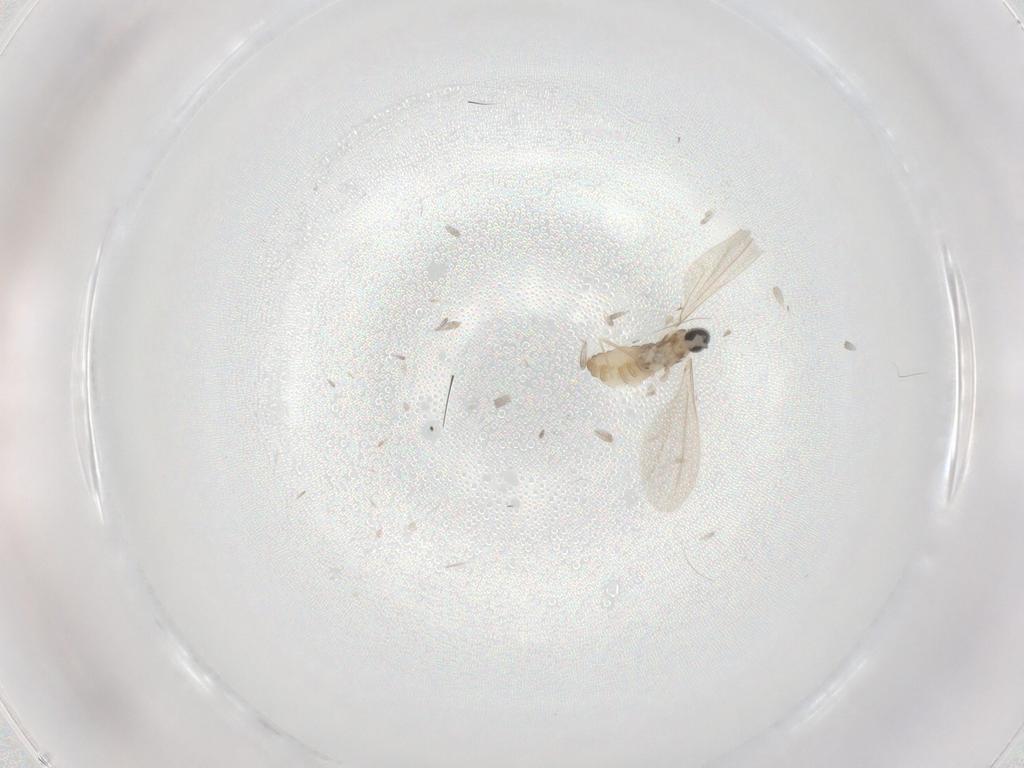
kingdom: Animalia
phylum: Arthropoda
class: Insecta
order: Diptera
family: Cecidomyiidae
